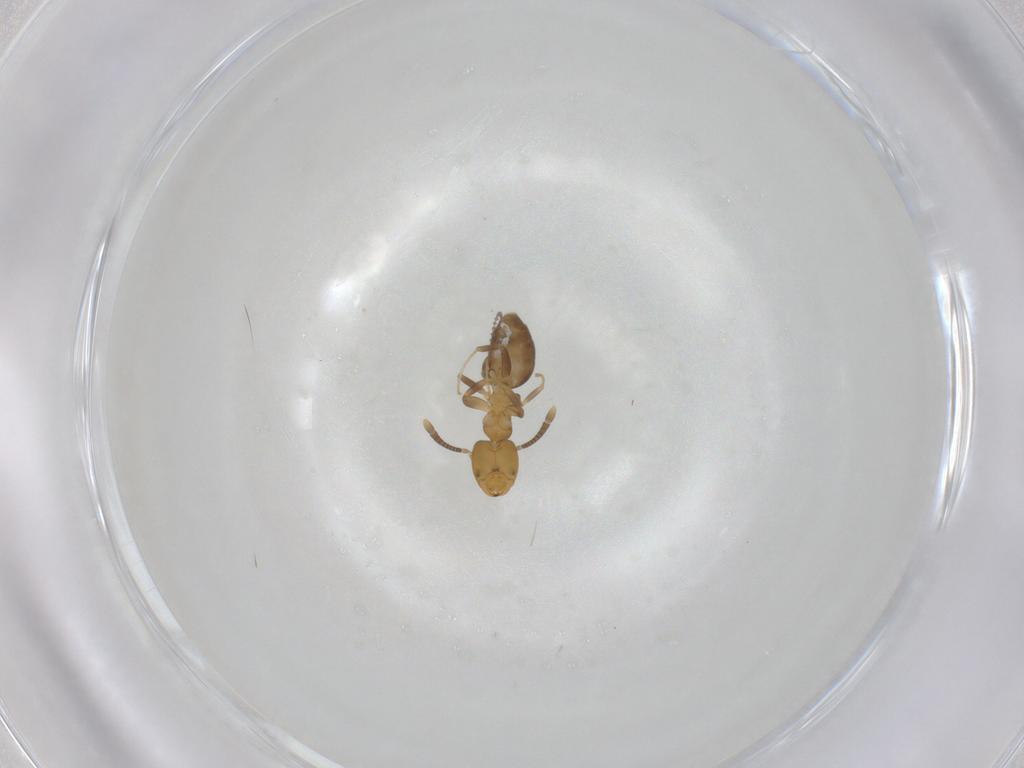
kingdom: Animalia
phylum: Arthropoda
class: Insecta
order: Hymenoptera
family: Formicidae
